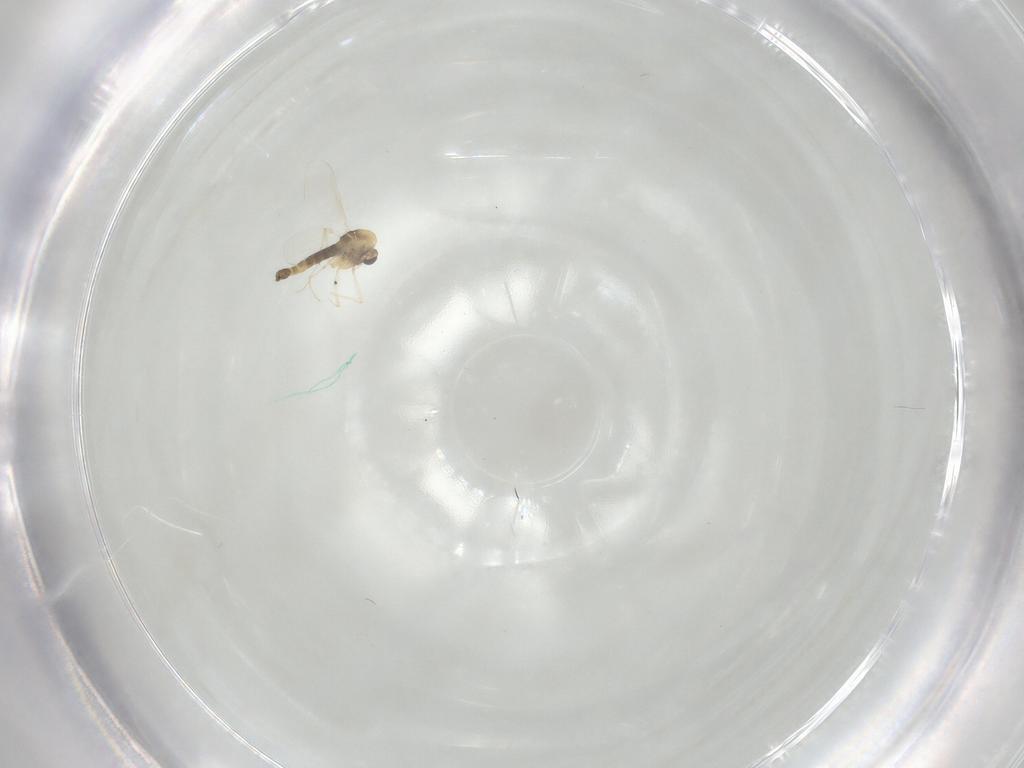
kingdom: Animalia
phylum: Arthropoda
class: Insecta
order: Diptera
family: Chironomidae
